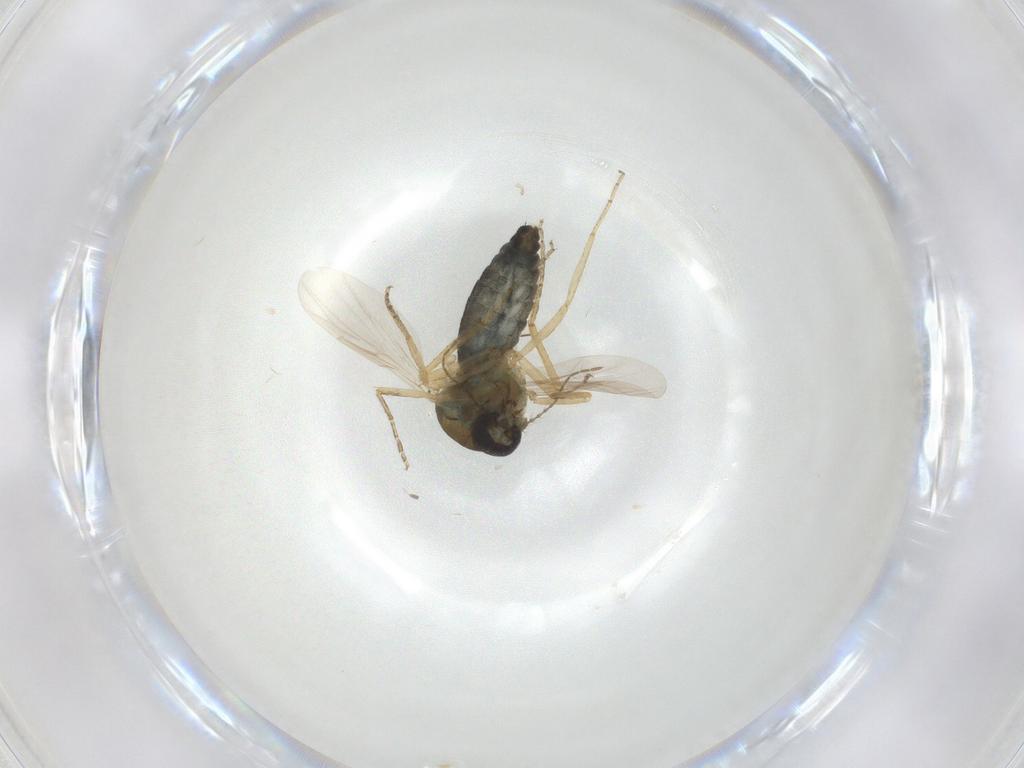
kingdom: Animalia
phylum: Arthropoda
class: Insecta
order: Diptera
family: Ceratopogonidae
